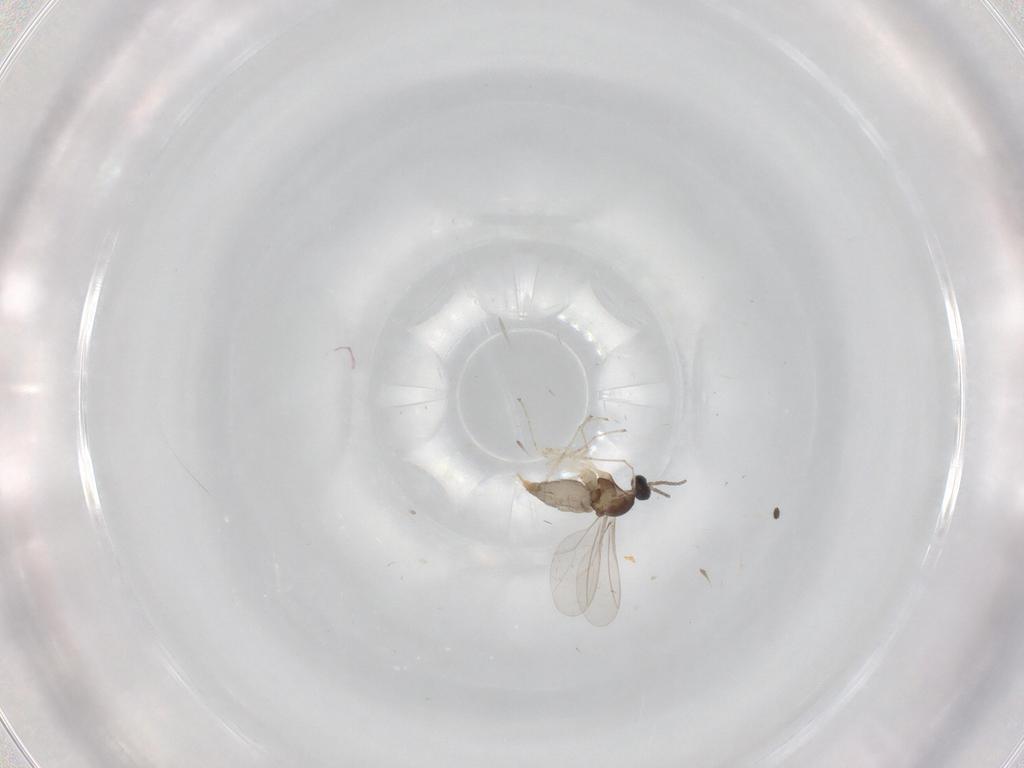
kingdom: Animalia
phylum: Arthropoda
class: Insecta
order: Diptera
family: Cecidomyiidae
